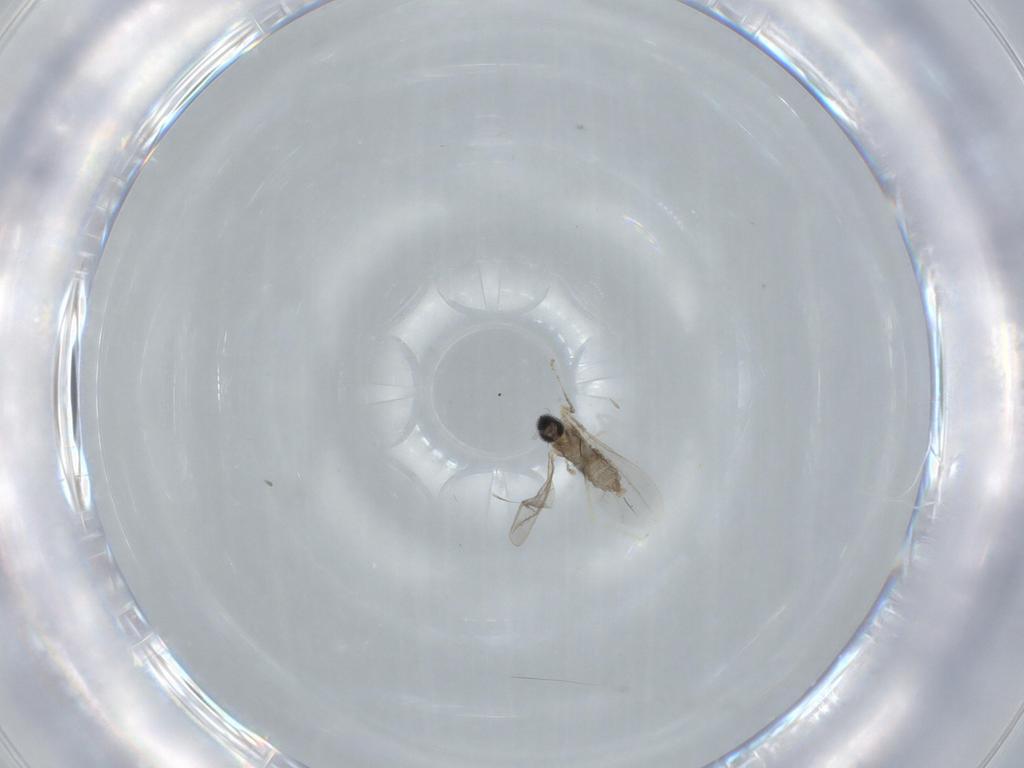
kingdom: Animalia
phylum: Arthropoda
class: Insecta
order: Diptera
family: Cecidomyiidae
